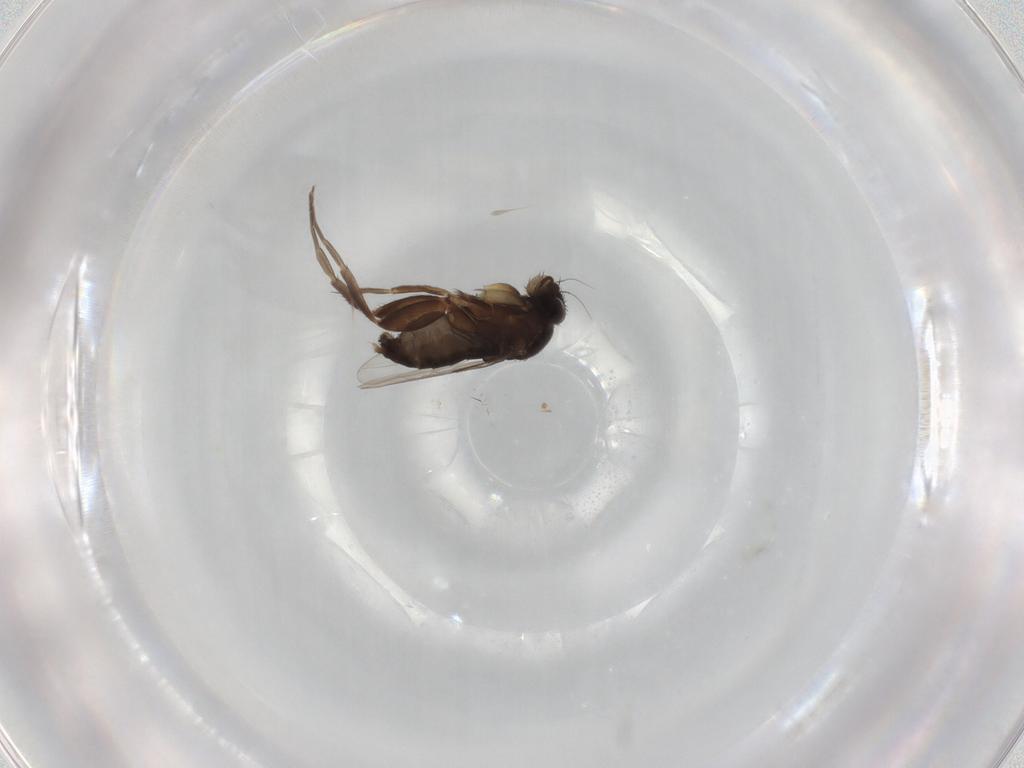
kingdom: Animalia
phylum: Arthropoda
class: Insecta
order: Diptera
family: Phoridae
